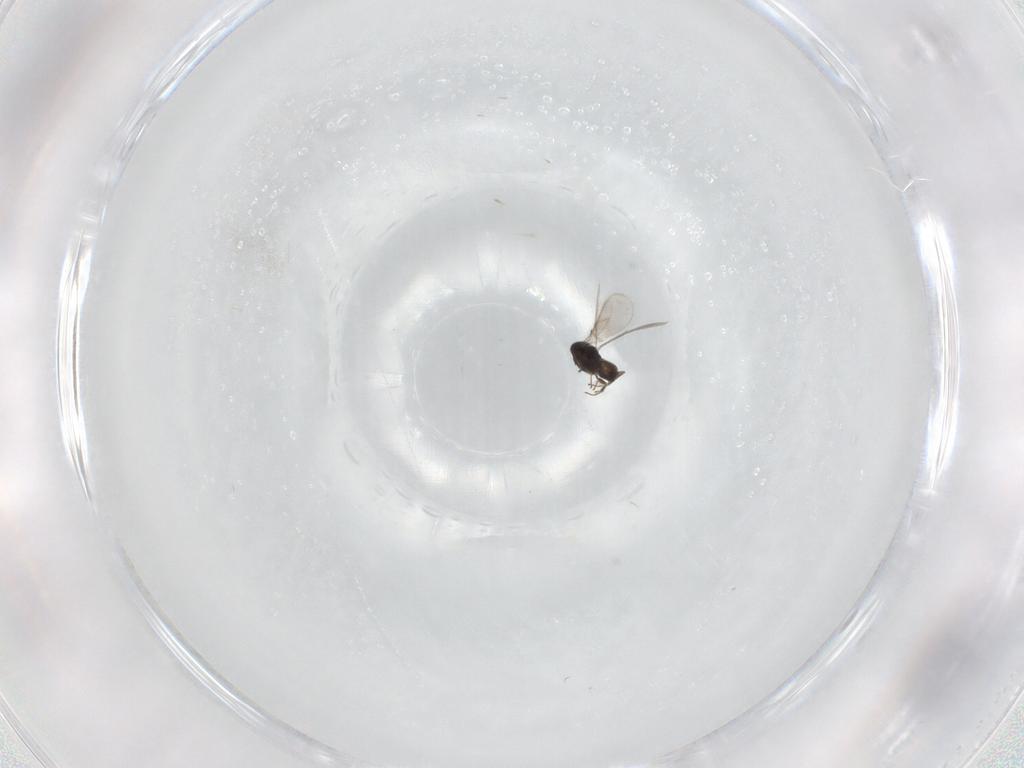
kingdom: Animalia
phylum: Arthropoda
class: Insecta
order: Hymenoptera
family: Scelionidae
